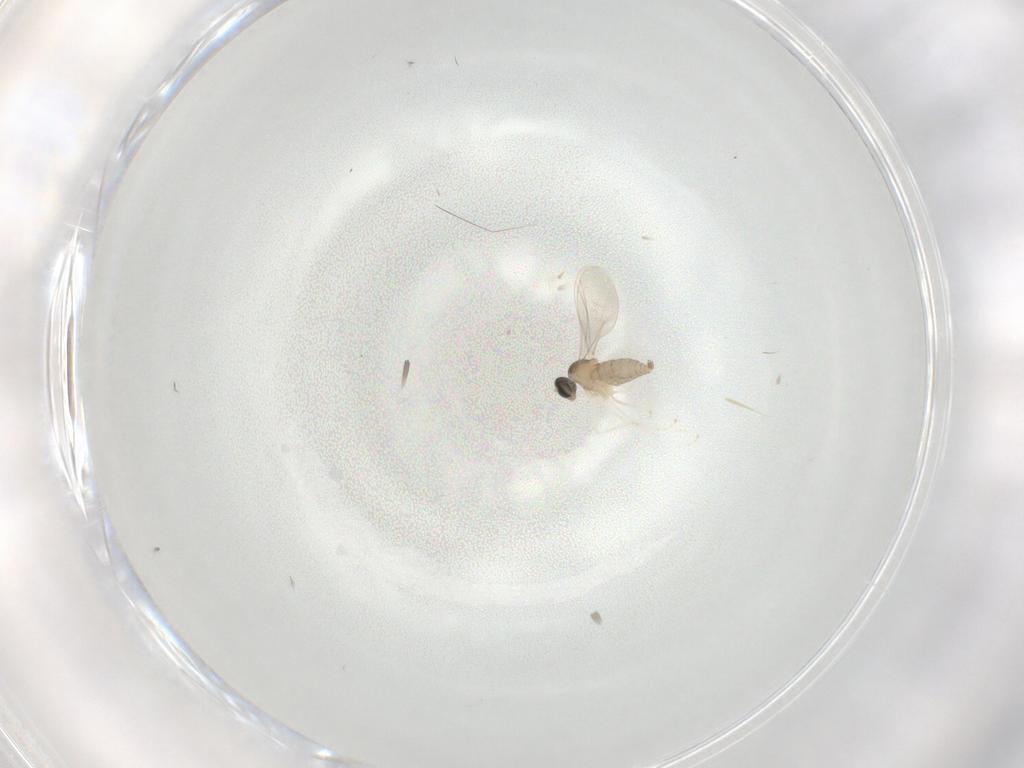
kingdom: Animalia
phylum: Arthropoda
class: Insecta
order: Diptera
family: Cecidomyiidae
